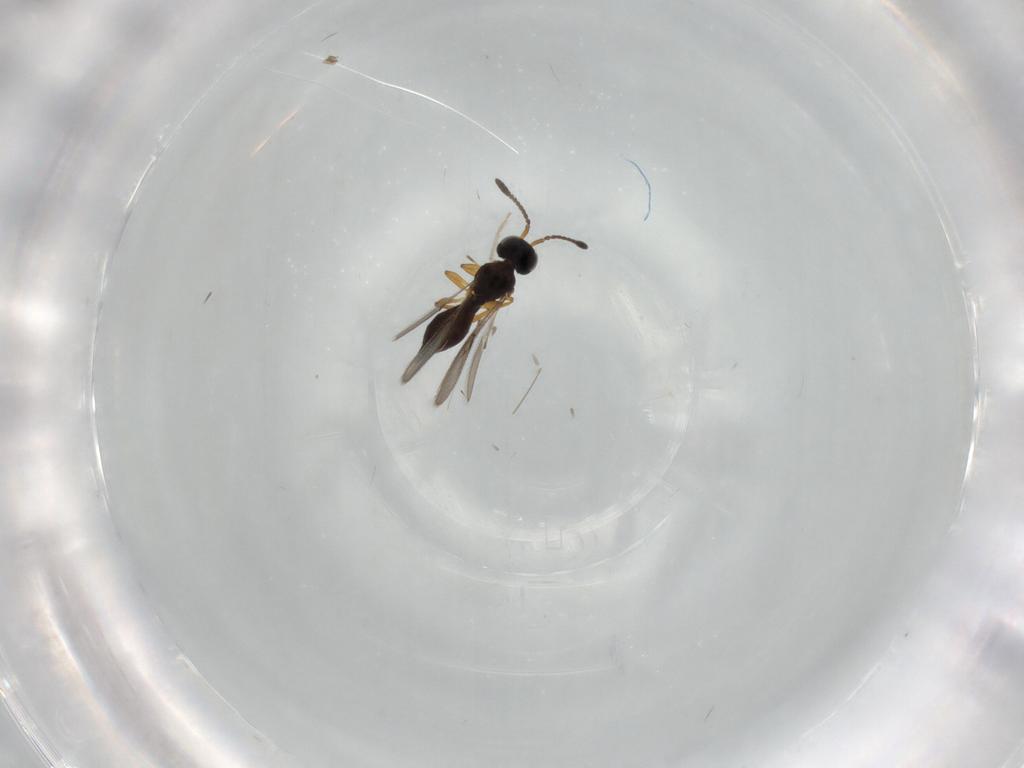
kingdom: Animalia
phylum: Arthropoda
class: Insecta
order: Hymenoptera
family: Scelionidae
